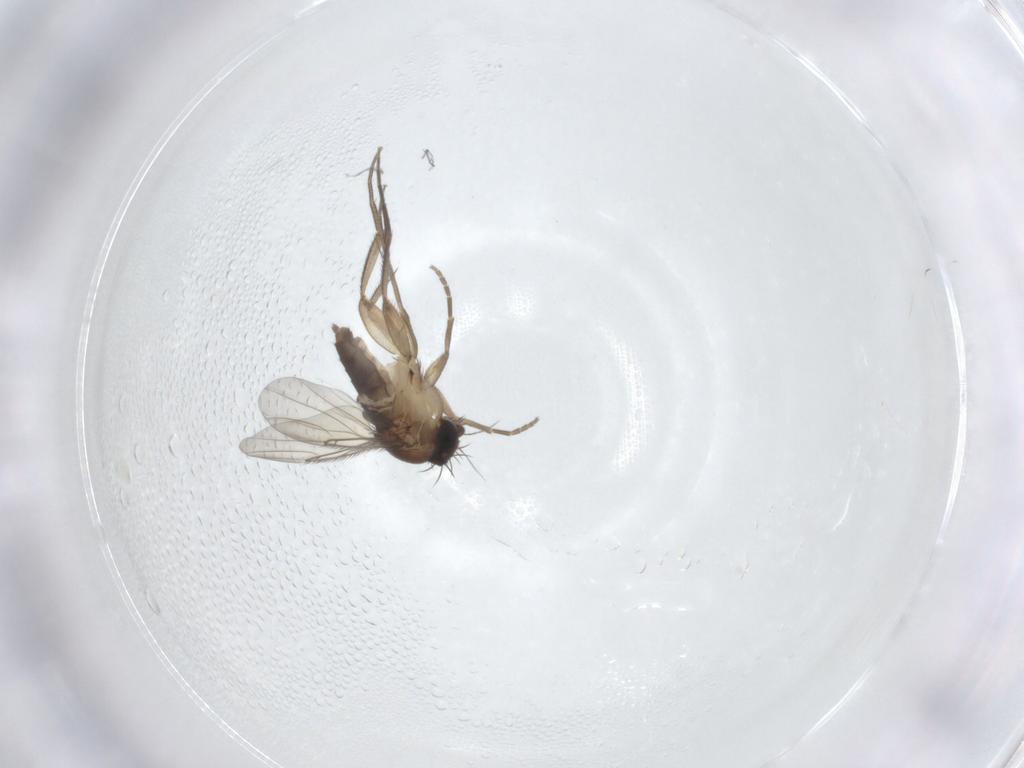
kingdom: Animalia
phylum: Arthropoda
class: Insecta
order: Diptera
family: Phoridae
